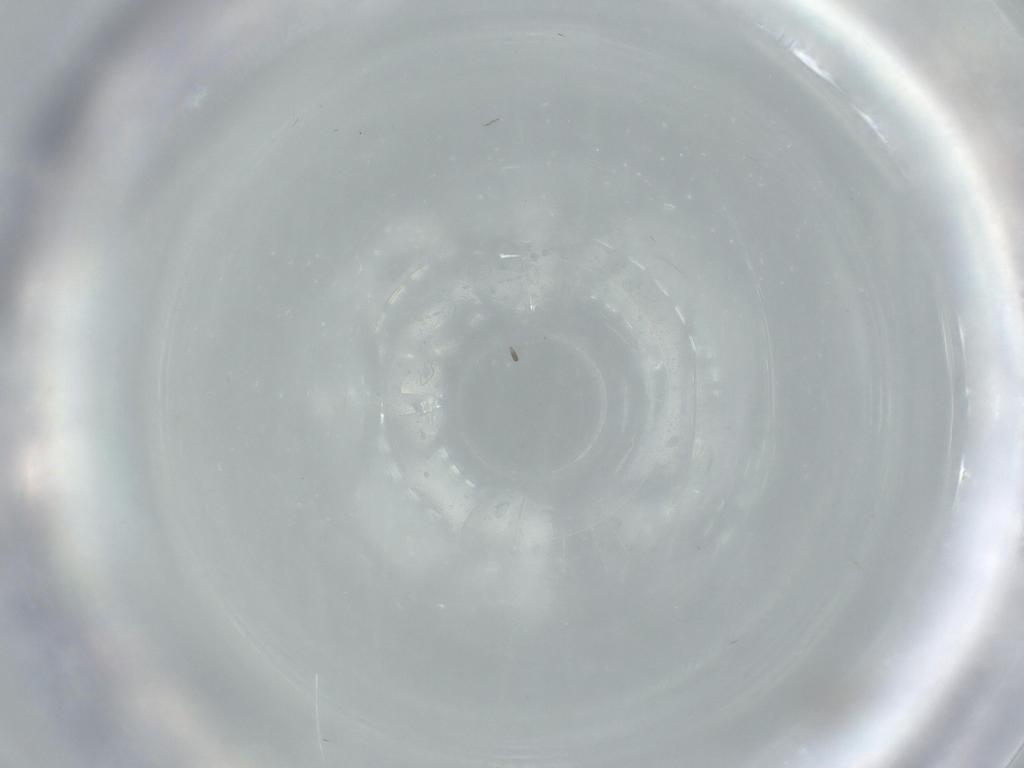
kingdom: Animalia
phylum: Arthropoda
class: Insecta
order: Diptera
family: Richardiidae
